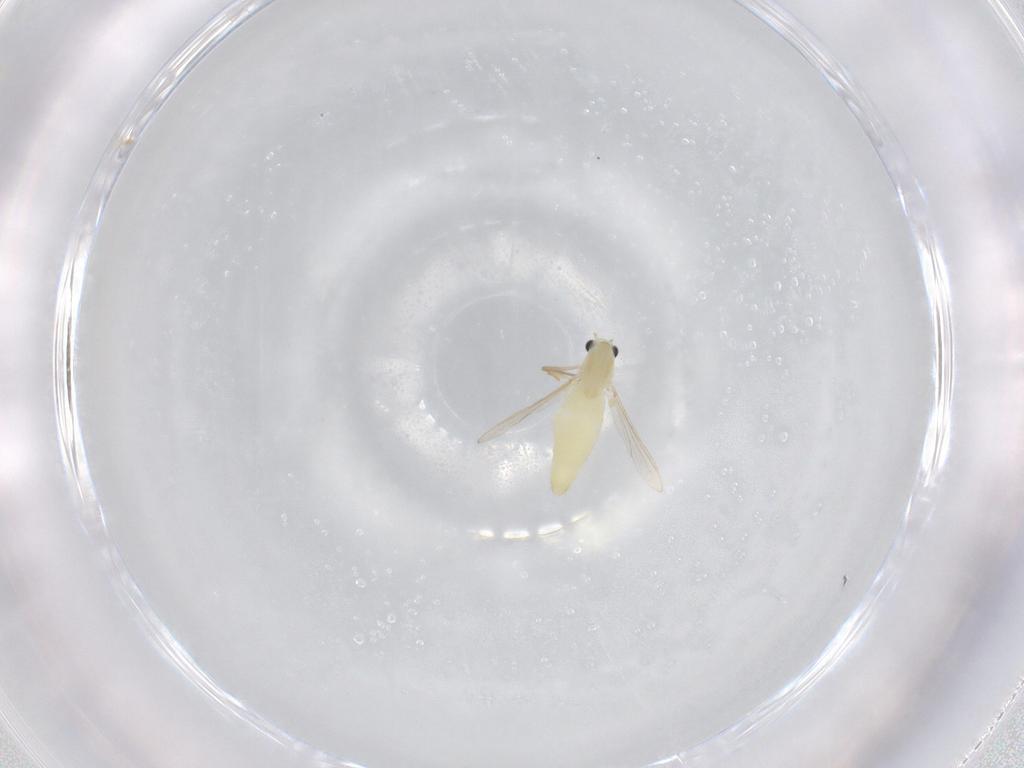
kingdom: Animalia
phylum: Arthropoda
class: Insecta
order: Diptera
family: Chironomidae
